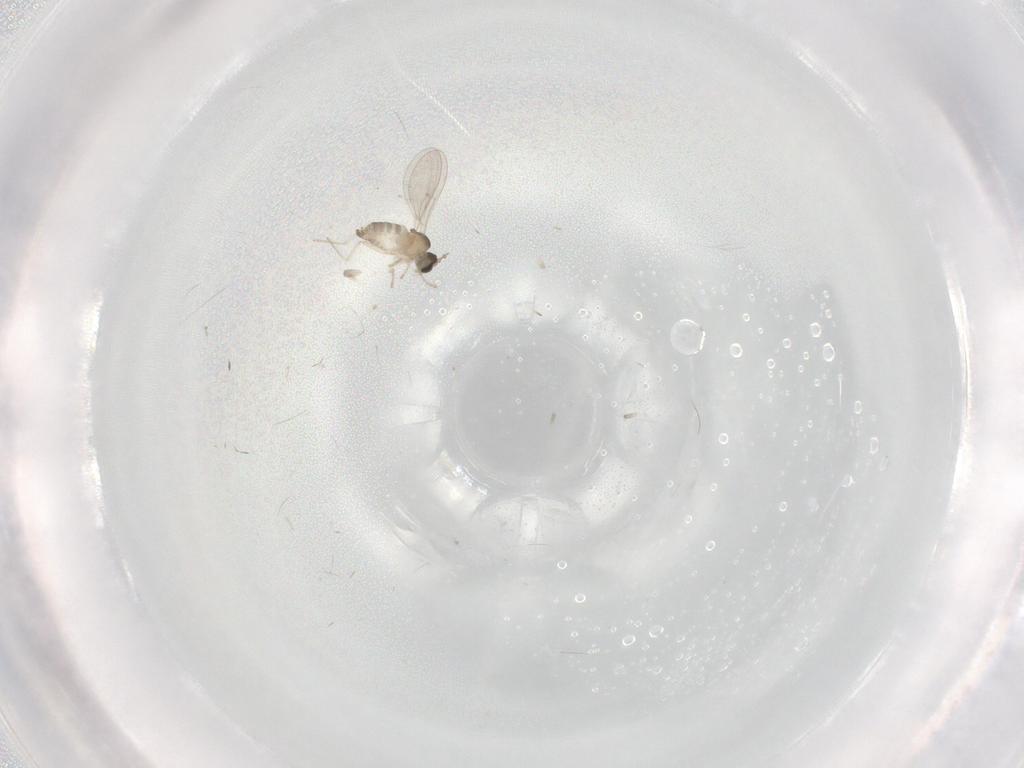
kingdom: Animalia
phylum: Arthropoda
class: Insecta
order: Diptera
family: Cecidomyiidae
